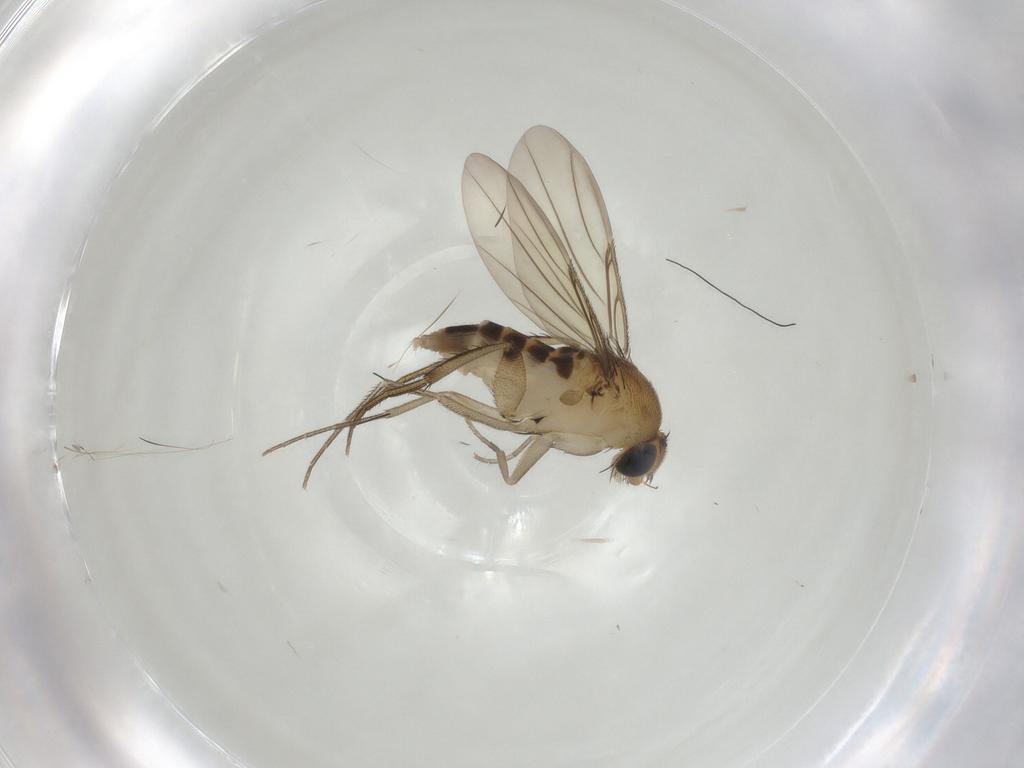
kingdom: Animalia
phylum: Arthropoda
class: Insecta
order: Diptera
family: Phoridae
